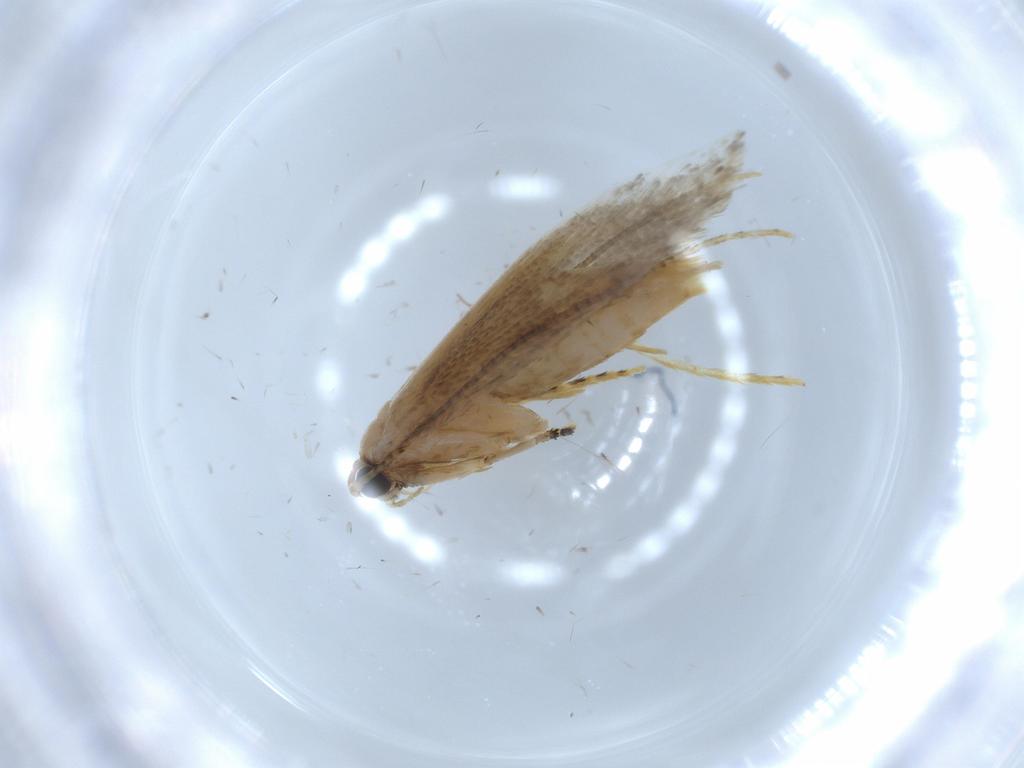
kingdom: Animalia
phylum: Arthropoda
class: Insecta
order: Lepidoptera
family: Tineidae
